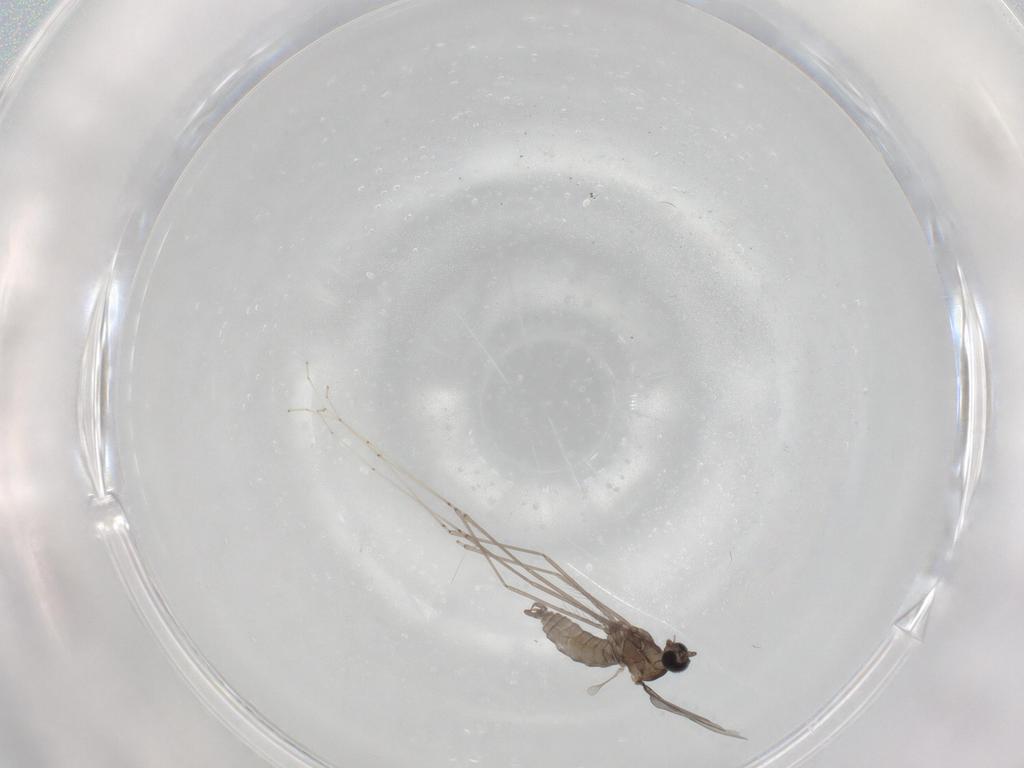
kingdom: Animalia
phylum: Arthropoda
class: Insecta
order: Diptera
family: Cecidomyiidae
